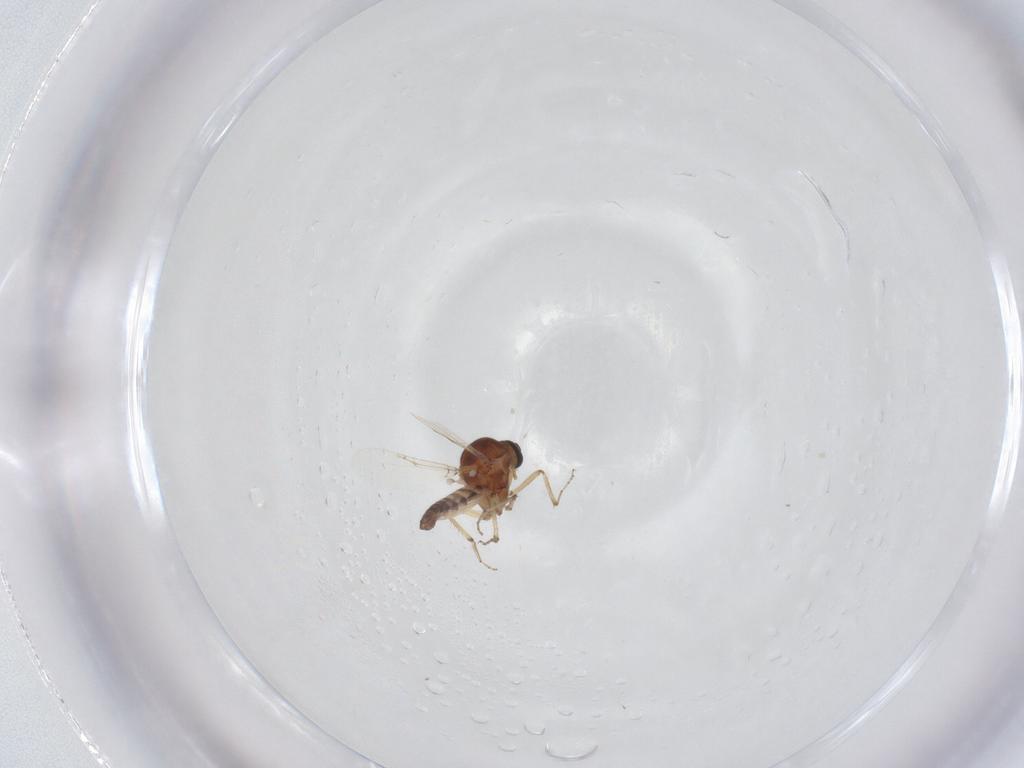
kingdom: Animalia
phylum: Arthropoda
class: Insecta
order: Diptera
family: Ceratopogonidae
